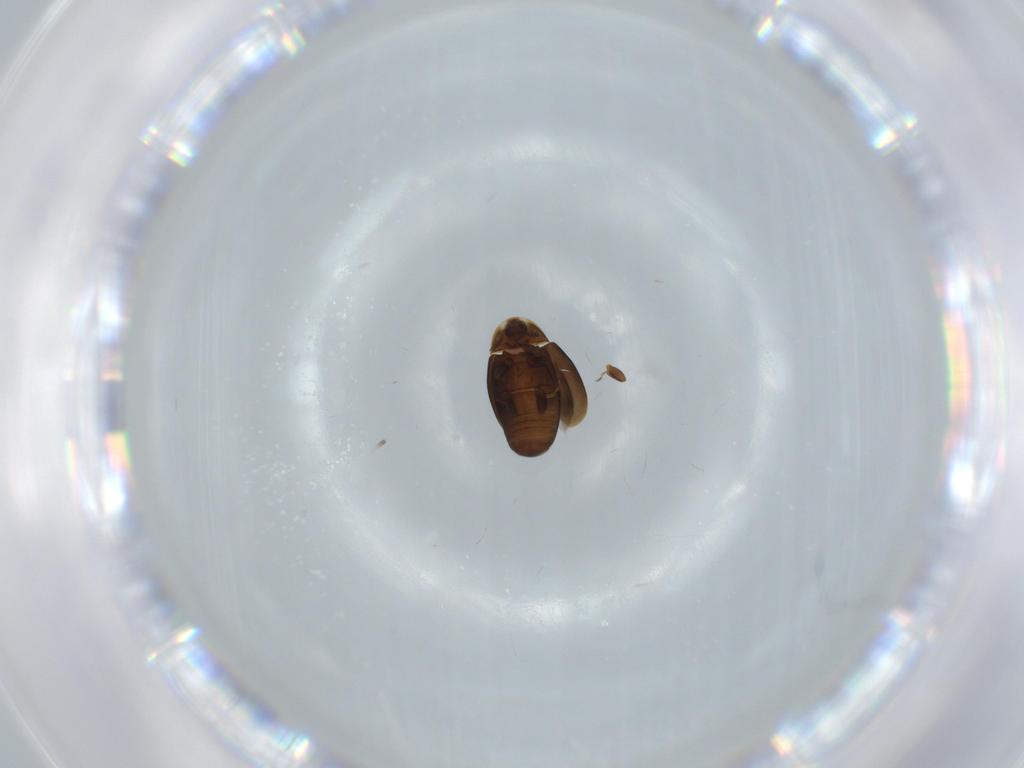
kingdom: Animalia
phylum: Arthropoda
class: Insecta
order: Coleoptera
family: Corylophidae
